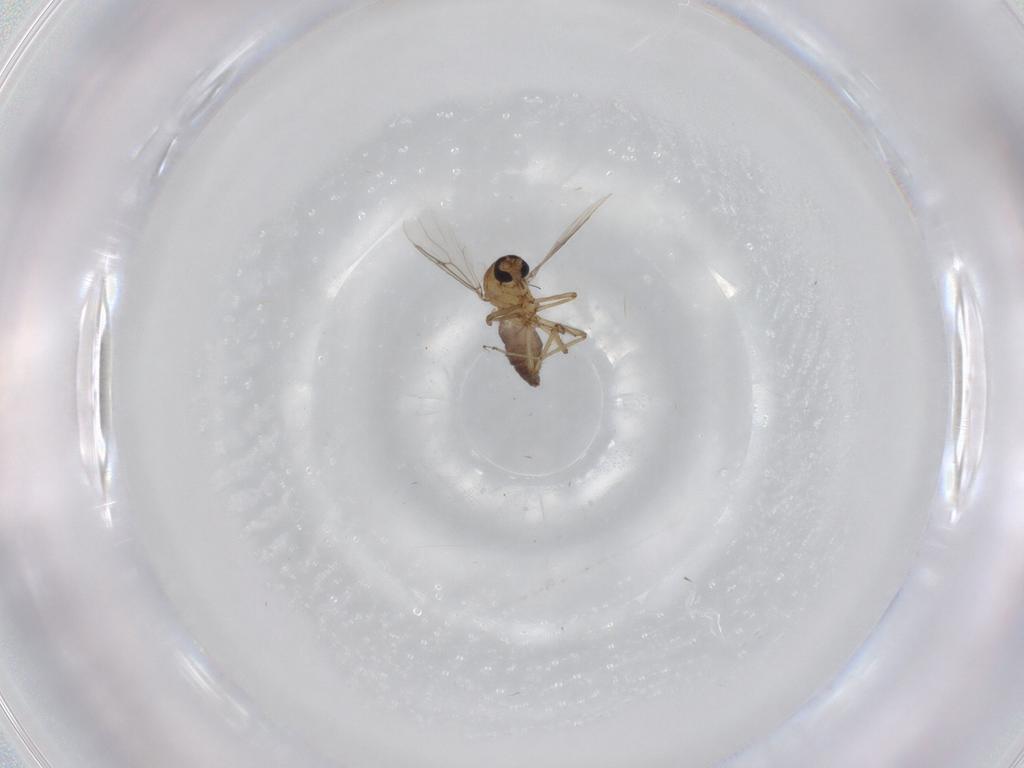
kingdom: Animalia
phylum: Arthropoda
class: Insecta
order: Diptera
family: Ceratopogonidae
